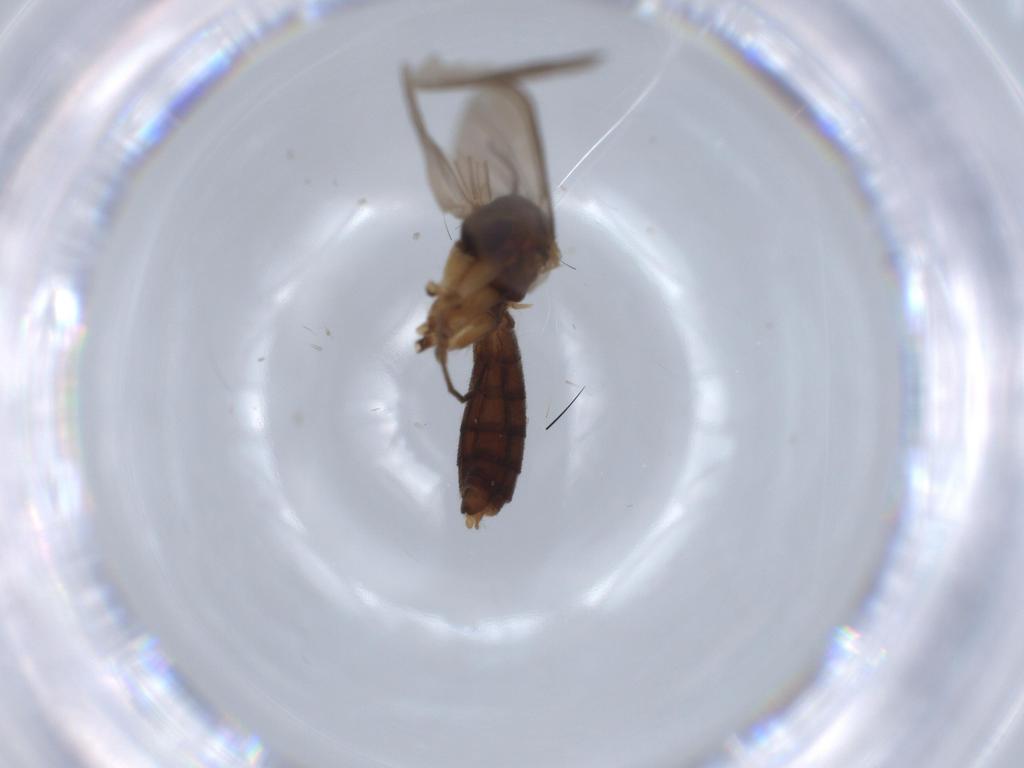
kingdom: Animalia
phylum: Arthropoda
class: Insecta
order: Diptera
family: Mycetophilidae
